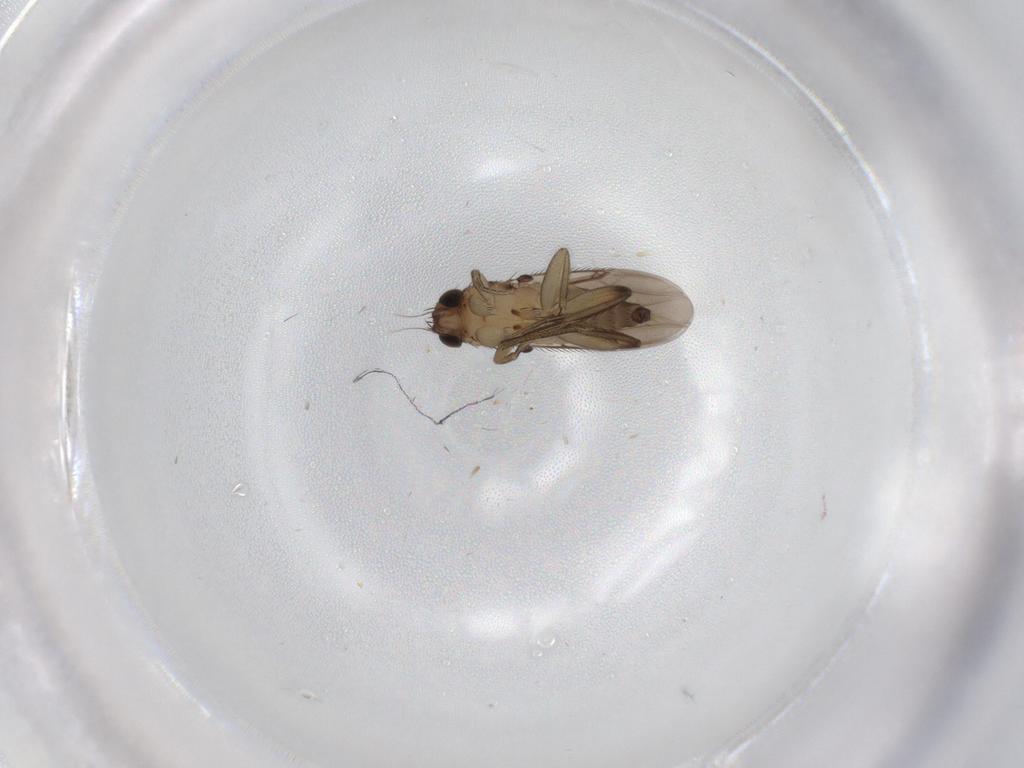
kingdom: Animalia
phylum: Arthropoda
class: Insecta
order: Diptera
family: Phoridae
